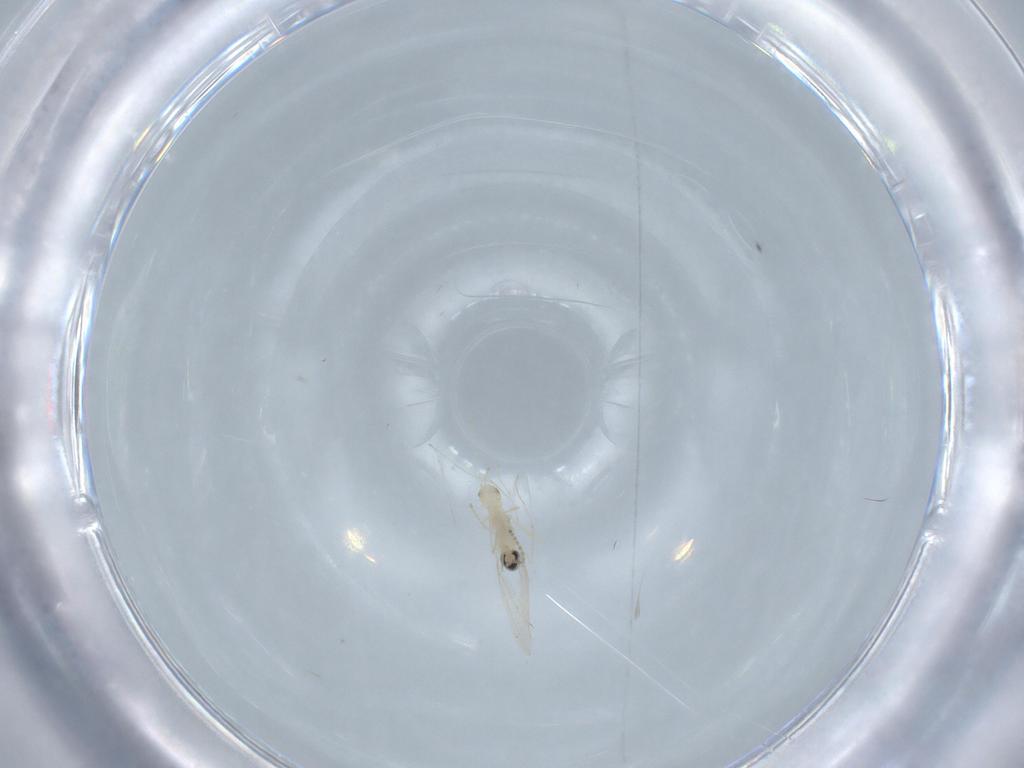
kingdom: Animalia
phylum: Arthropoda
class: Insecta
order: Diptera
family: Cecidomyiidae
